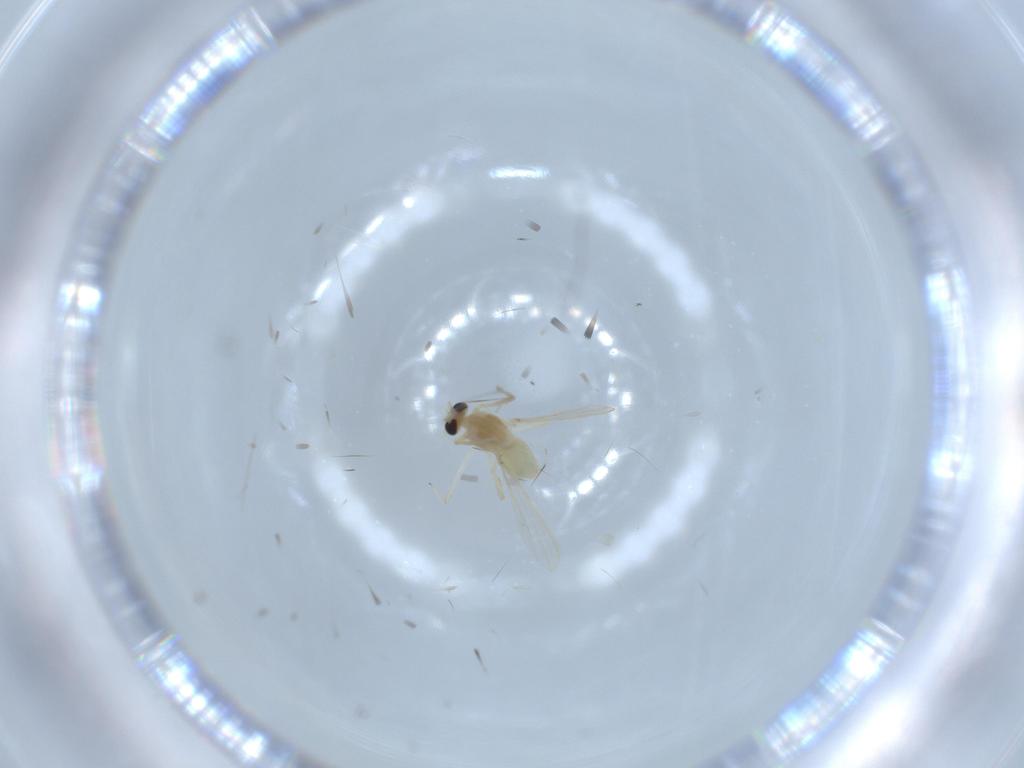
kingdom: Animalia
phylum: Arthropoda
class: Insecta
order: Diptera
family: Chironomidae
